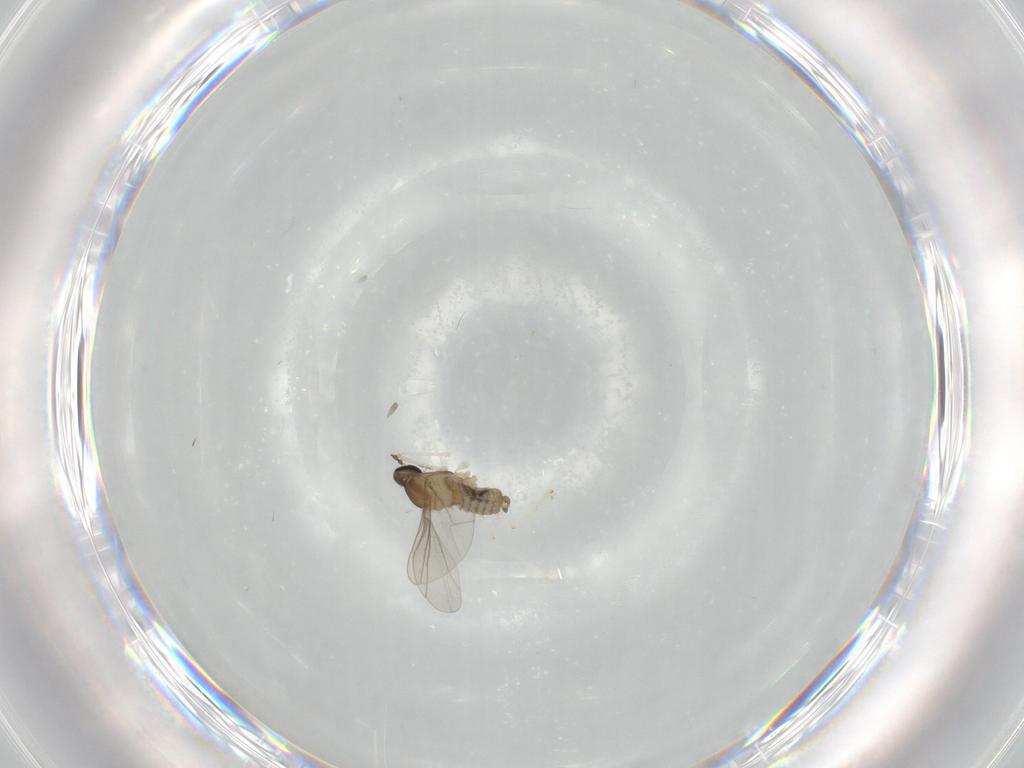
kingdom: Animalia
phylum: Arthropoda
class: Insecta
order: Diptera
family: Cecidomyiidae
